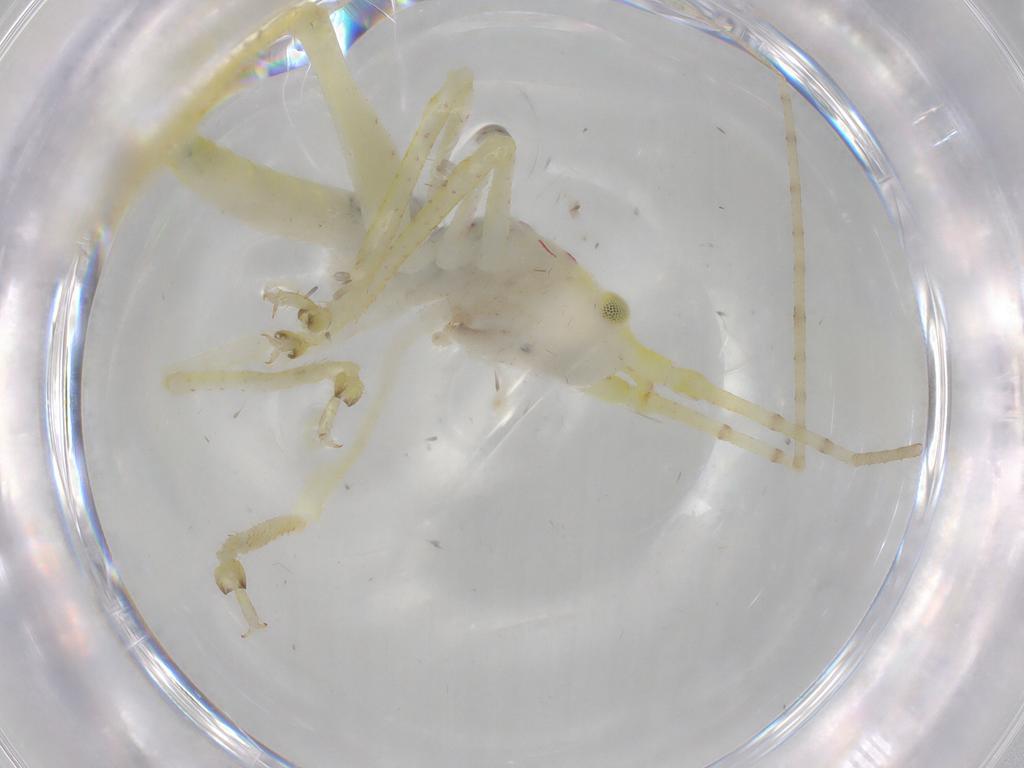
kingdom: Animalia
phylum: Arthropoda
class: Insecta
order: Orthoptera
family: Tettigoniidae
